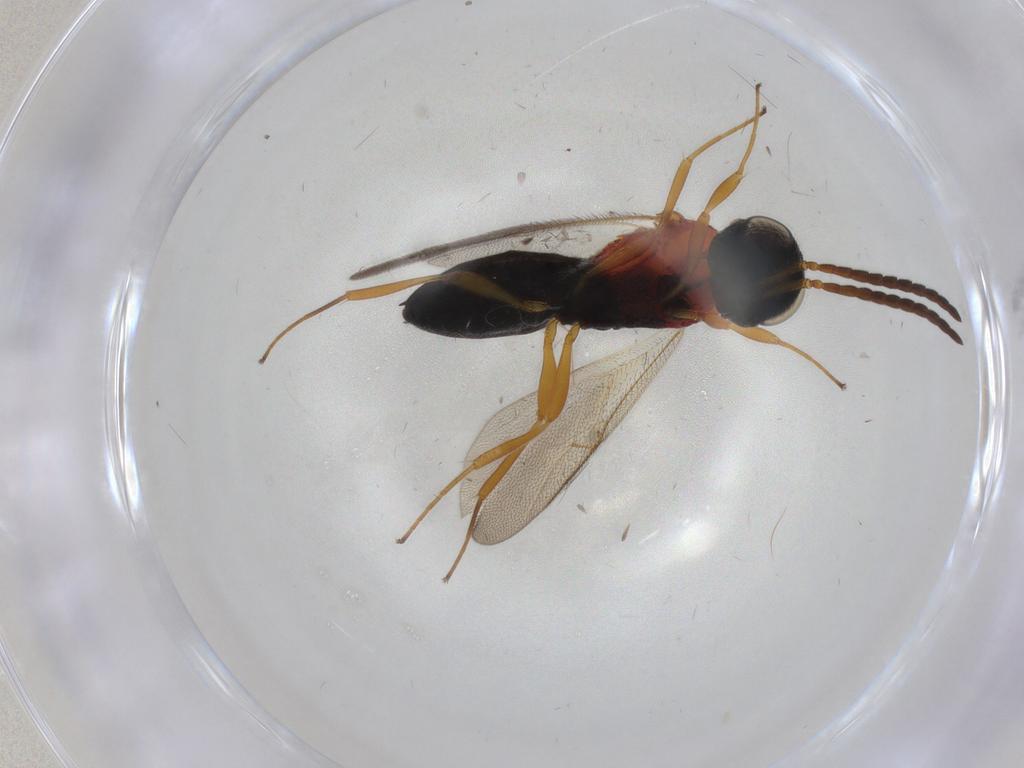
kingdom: Animalia
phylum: Arthropoda
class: Insecta
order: Hymenoptera
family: Scelionidae
